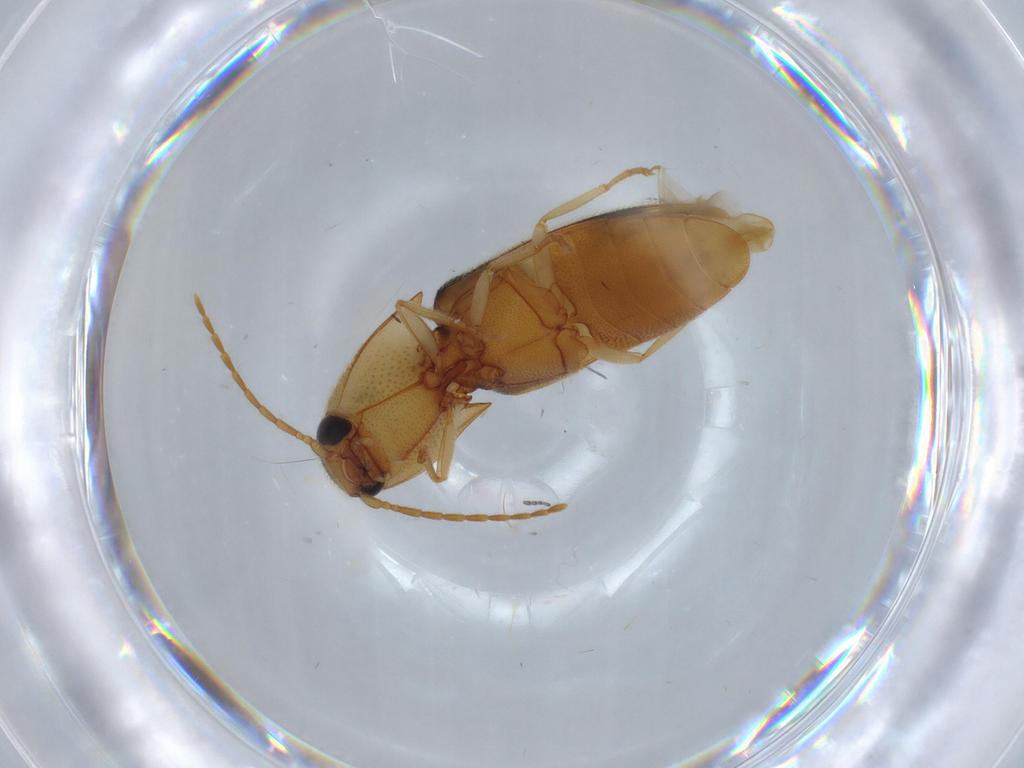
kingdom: Animalia
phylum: Arthropoda
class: Insecta
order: Coleoptera
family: Elateridae
